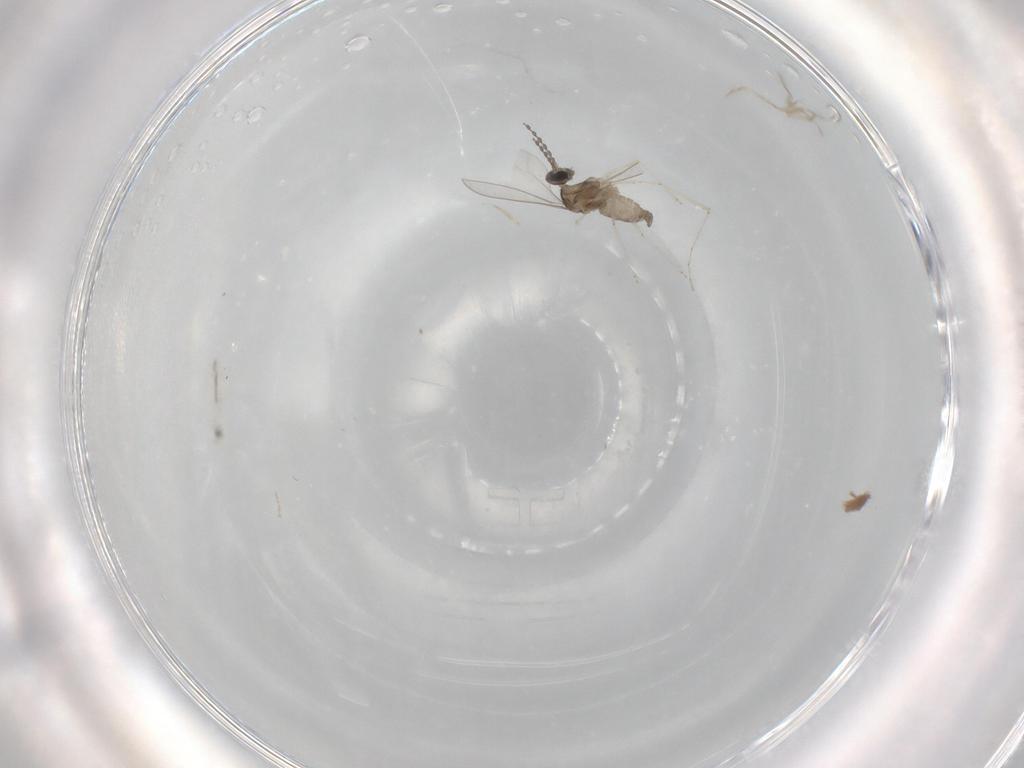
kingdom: Animalia
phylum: Arthropoda
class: Insecta
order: Diptera
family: Cecidomyiidae
